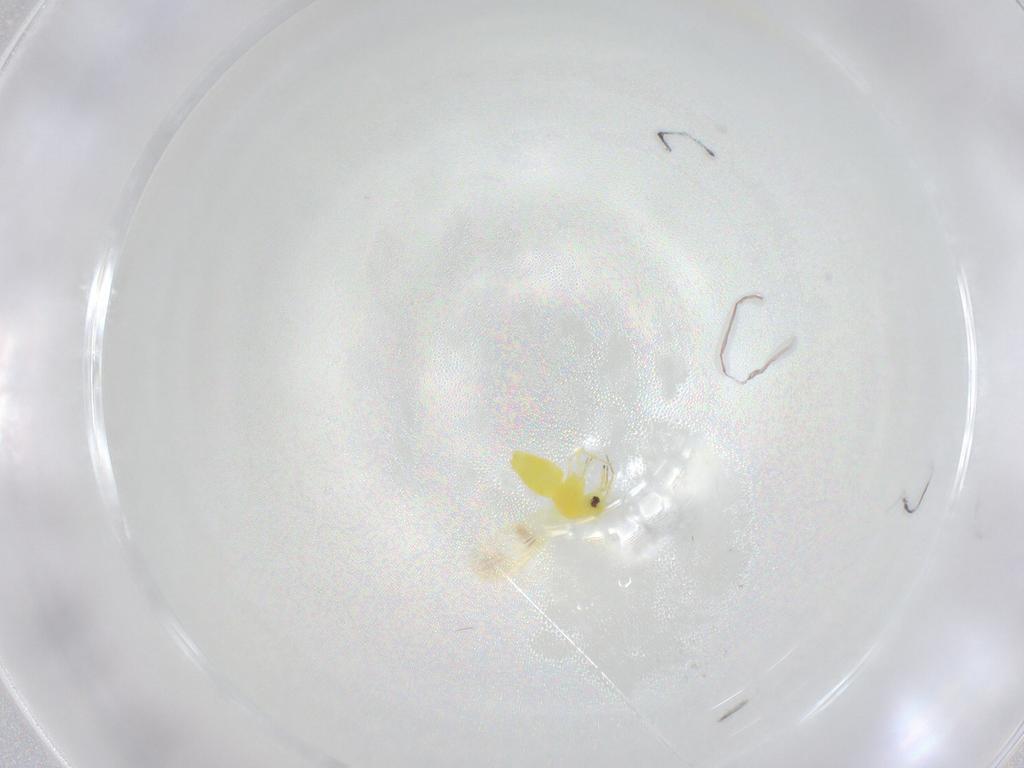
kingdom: Animalia
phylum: Arthropoda
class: Insecta
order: Hemiptera
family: Aleyrodidae
